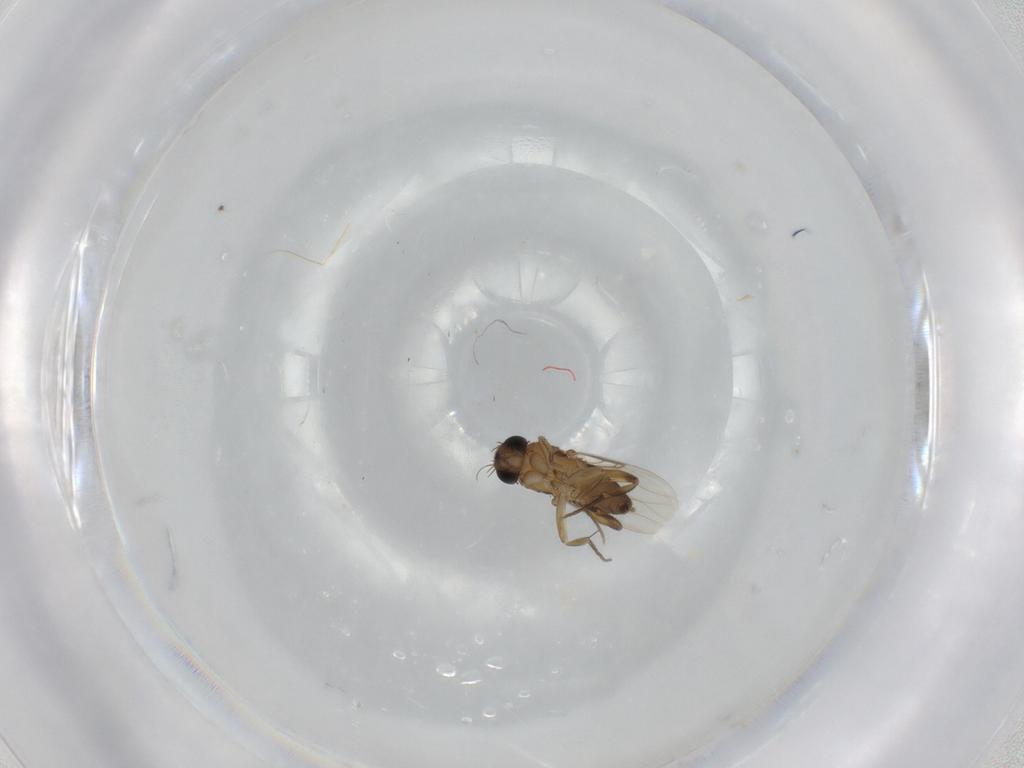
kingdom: Animalia
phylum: Arthropoda
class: Insecta
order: Diptera
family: Phoridae
